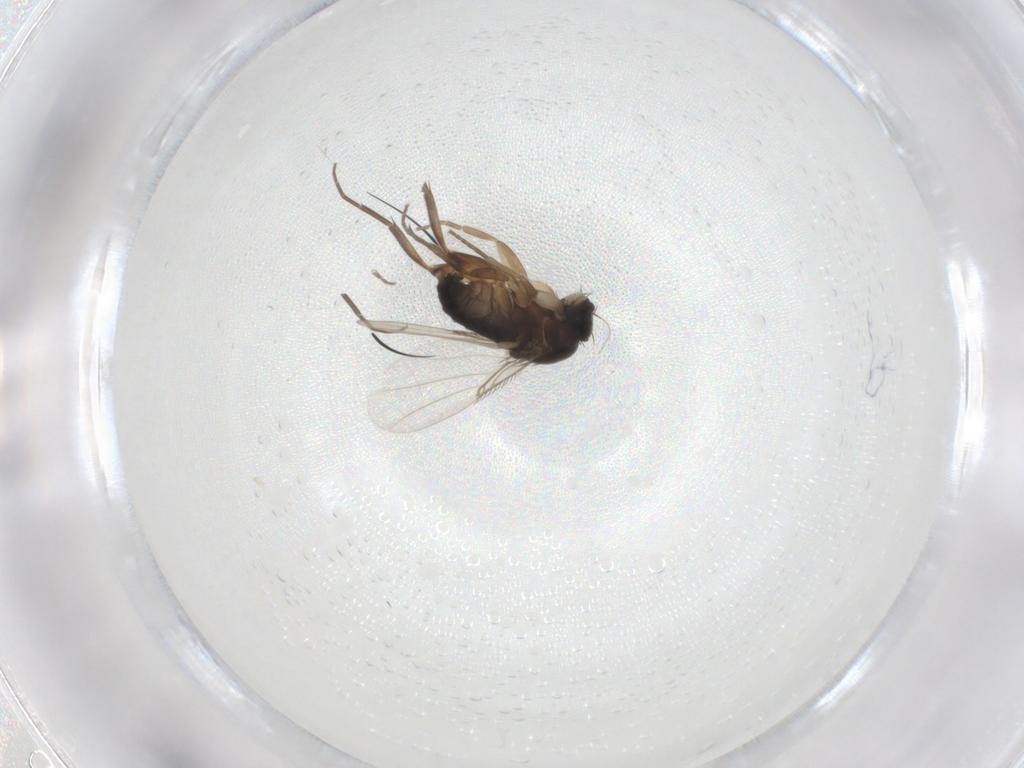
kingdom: Animalia
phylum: Arthropoda
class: Insecta
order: Diptera
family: Phoridae
